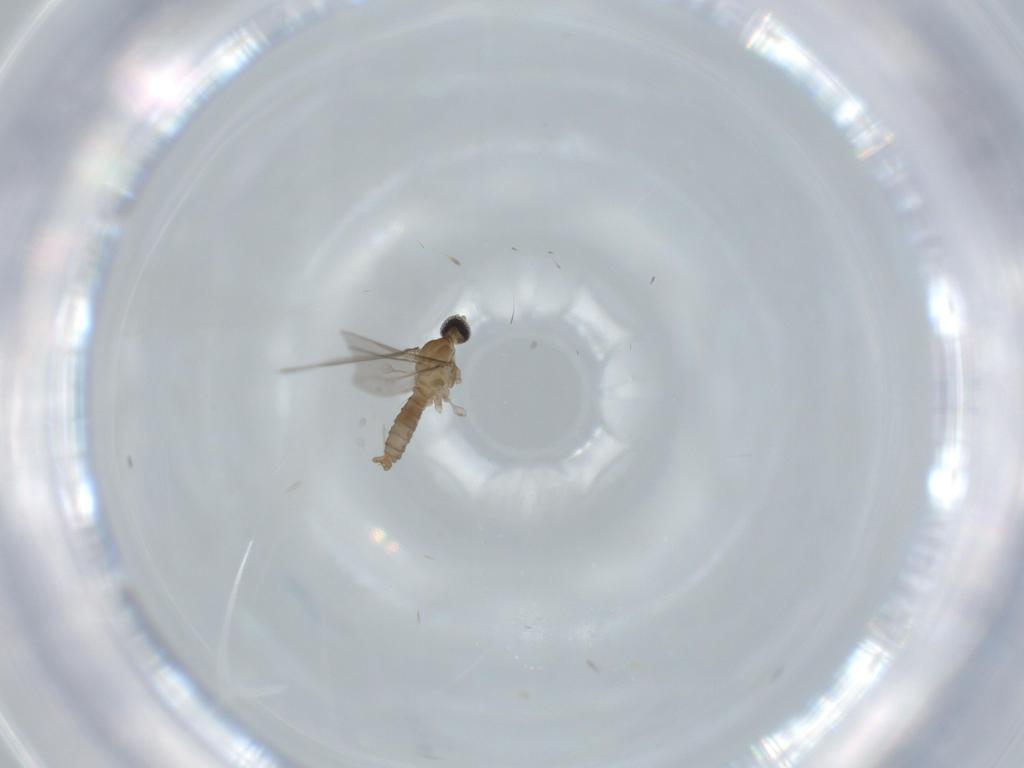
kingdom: Animalia
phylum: Arthropoda
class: Insecta
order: Diptera
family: Cecidomyiidae
